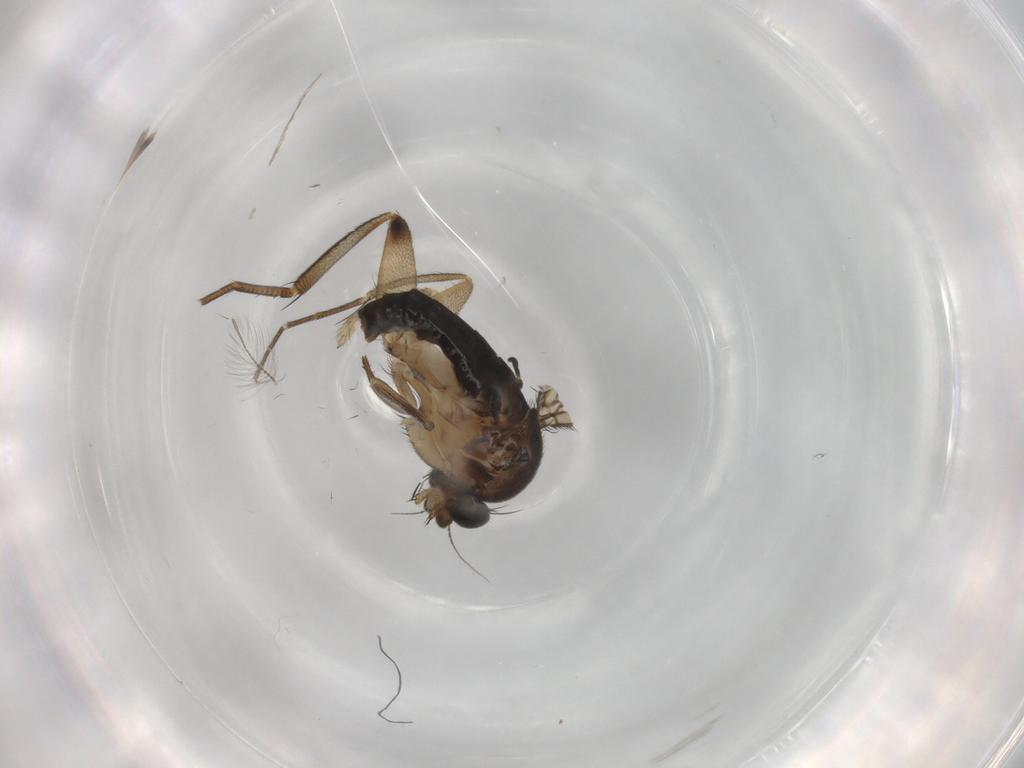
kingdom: Animalia
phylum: Arthropoda
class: Insecta
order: Diptera
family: Phoridae
